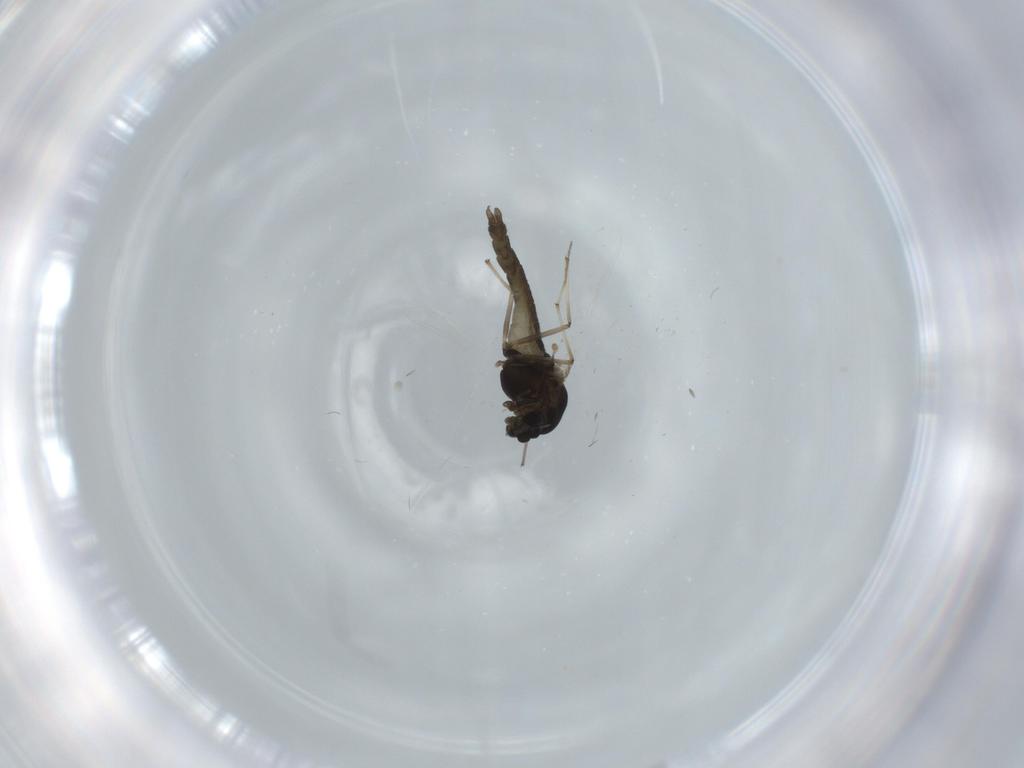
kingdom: Animalia
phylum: Arthropoda
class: Insecta
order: Diptera
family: Chironomidae
